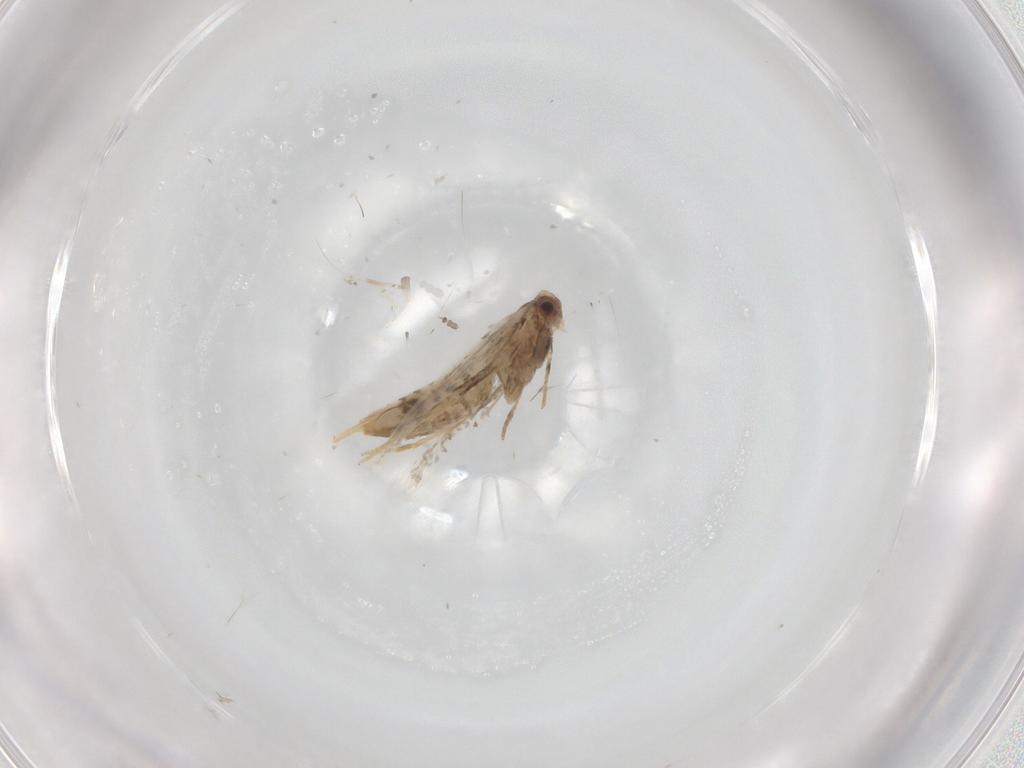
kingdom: Animalia
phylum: Arthropoda
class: Insecta
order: Lepidoptera
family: Tineidae
